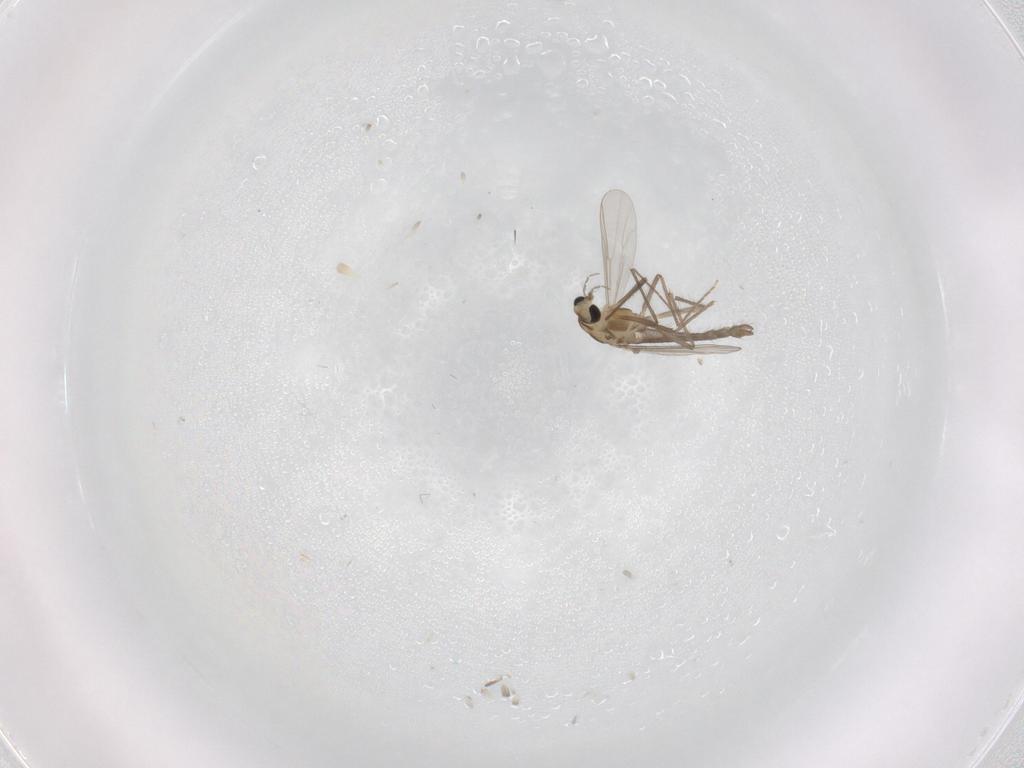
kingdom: Animalia
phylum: Arthropoda
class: Insecta
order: Diptera
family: Chironomidae
